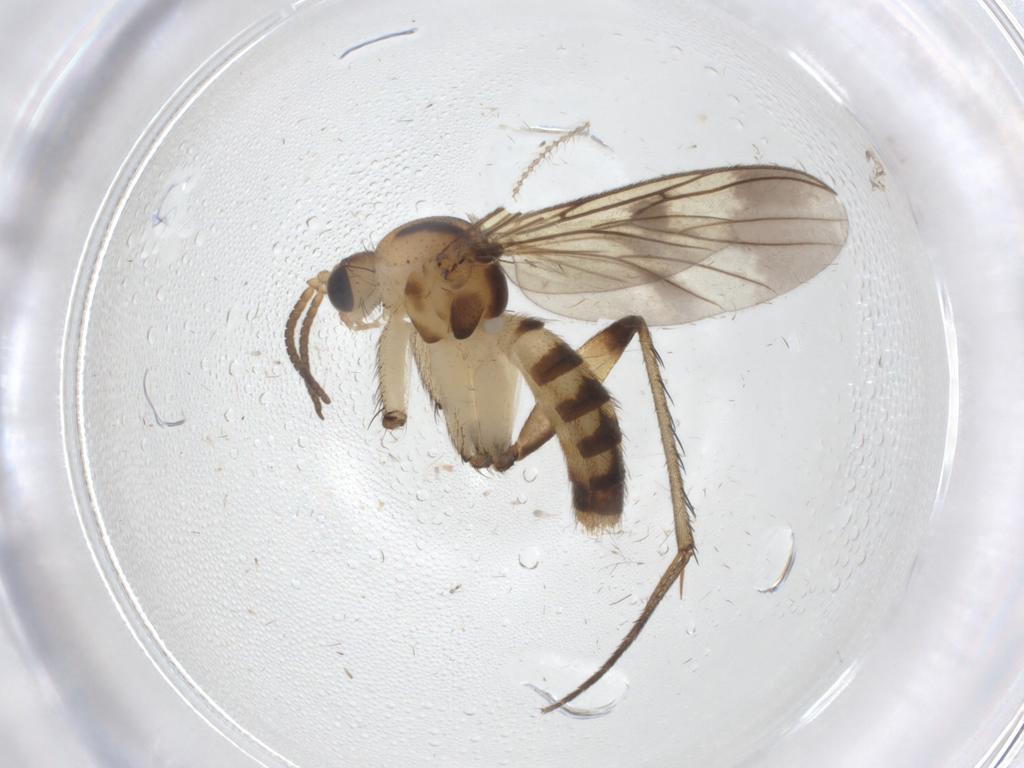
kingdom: Animalia
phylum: Arthropoda
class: Insecta
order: Diptera
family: Mycetophilidae
